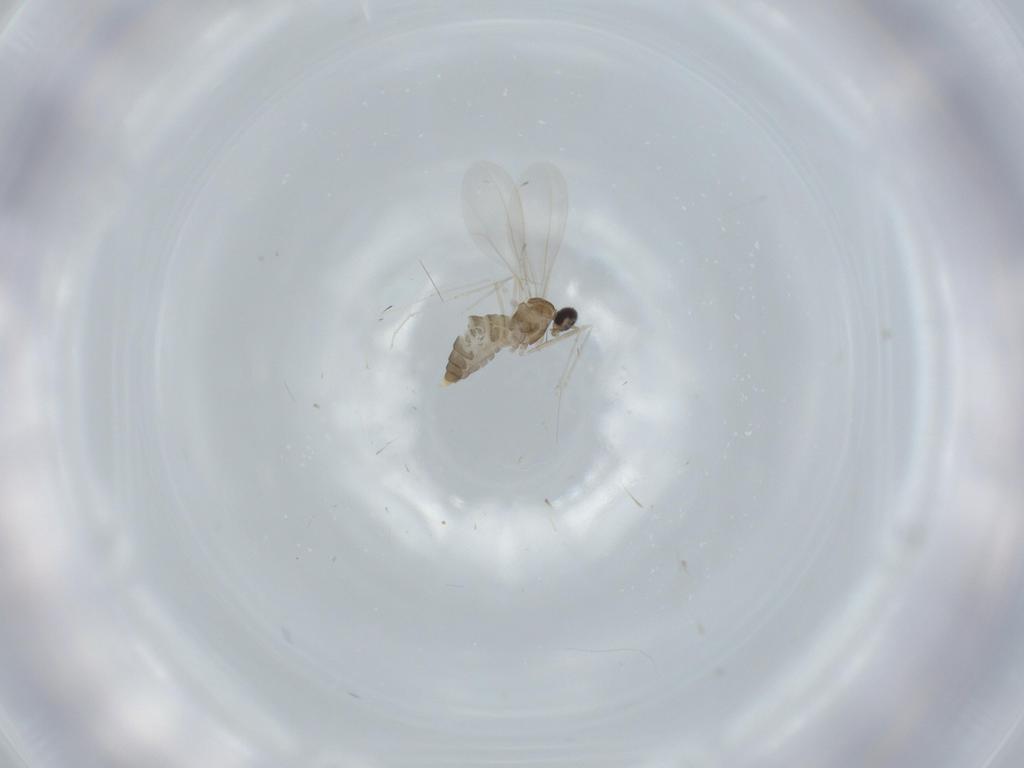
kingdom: Animalia
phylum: Arthropoda
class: Insecta
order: Diptera
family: Cecidomyiidae
